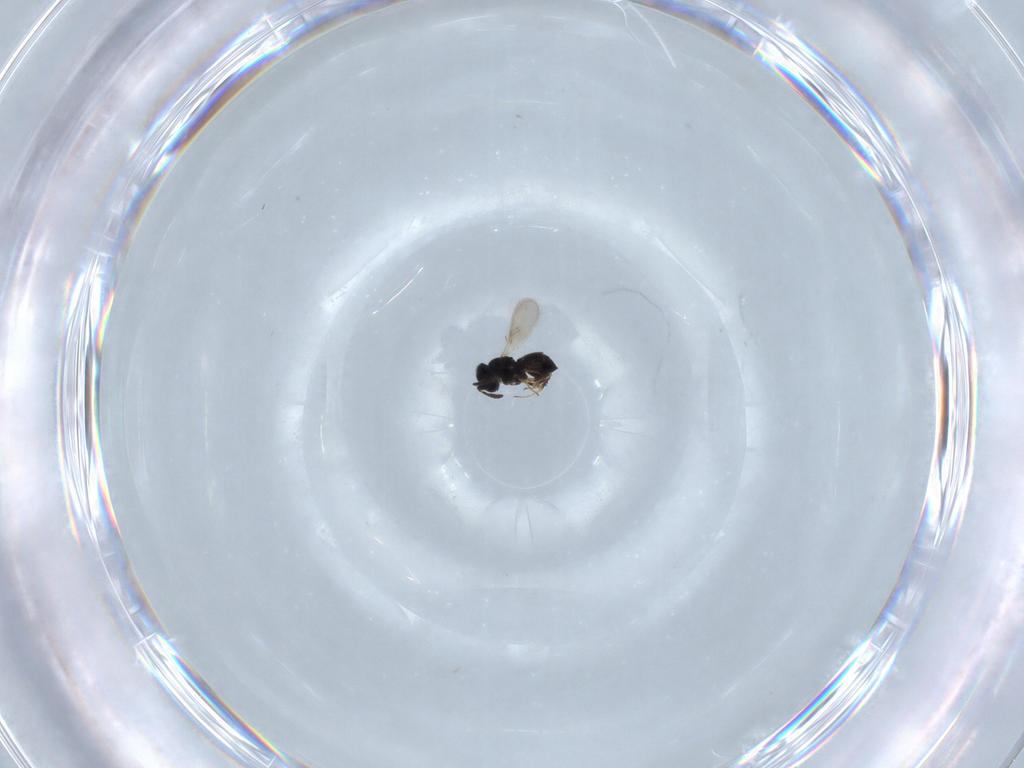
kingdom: Animalia
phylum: Arthropoda
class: Insecta
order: Hymenoptera
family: Scelionidae
